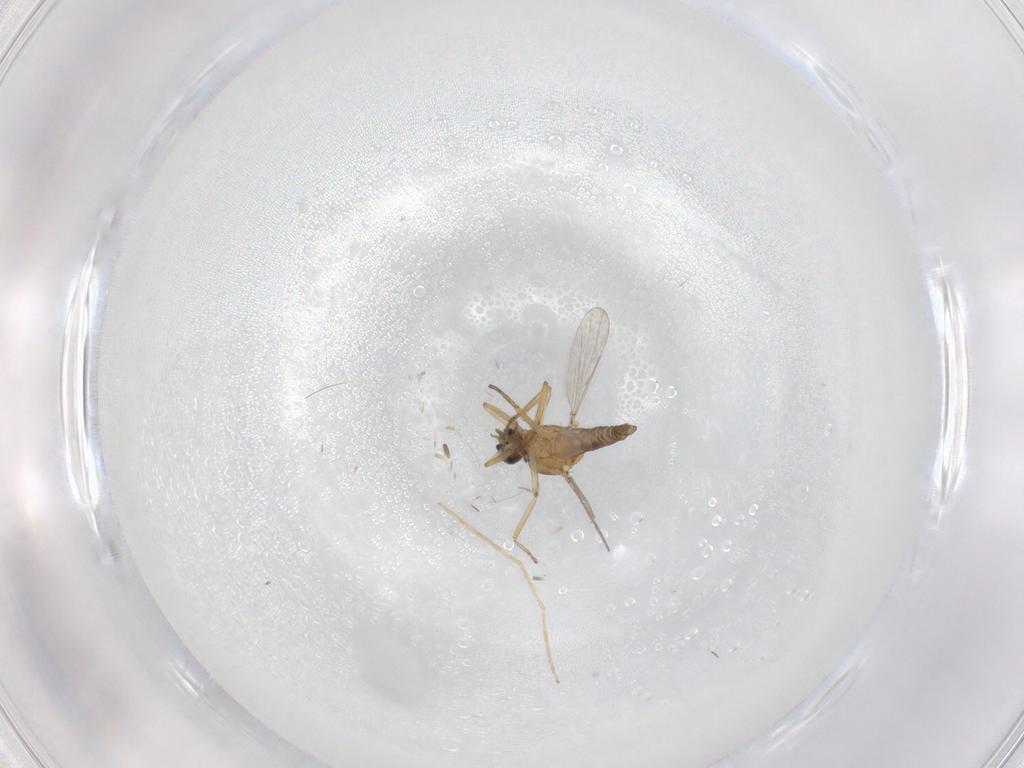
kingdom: Animalia
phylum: Arthropoda
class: Insecta
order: Diptera
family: Ceratopogonidae
